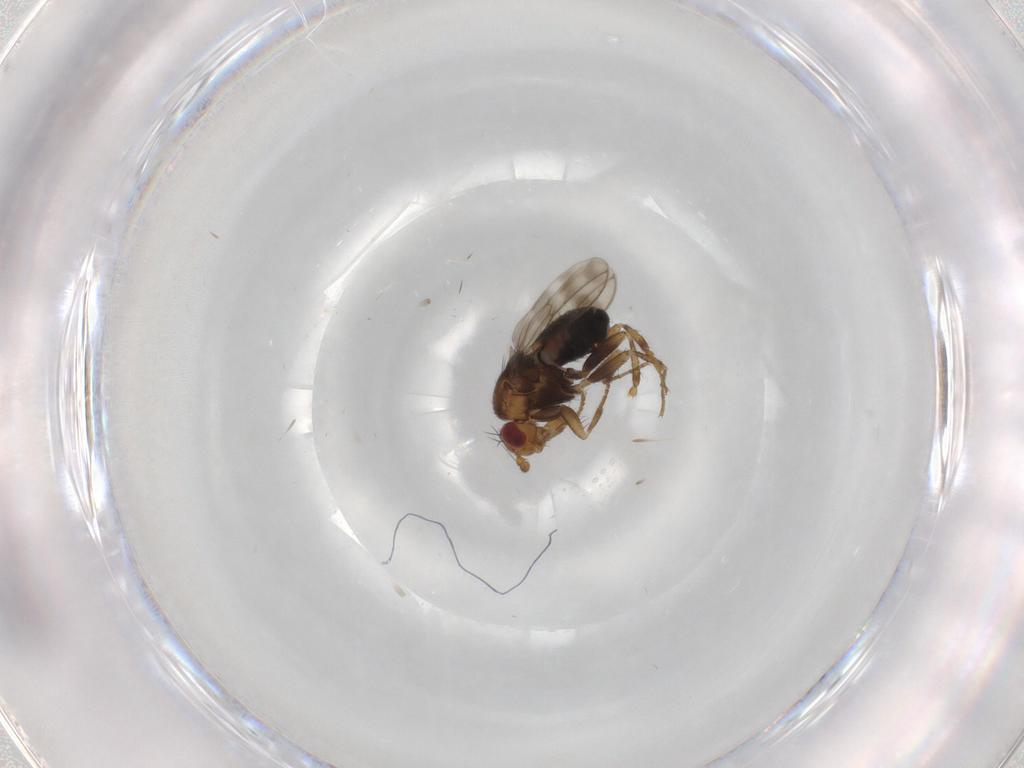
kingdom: Animalia
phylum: Arthropoda
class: Insecta
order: Diptera
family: Sphaeroceridae
